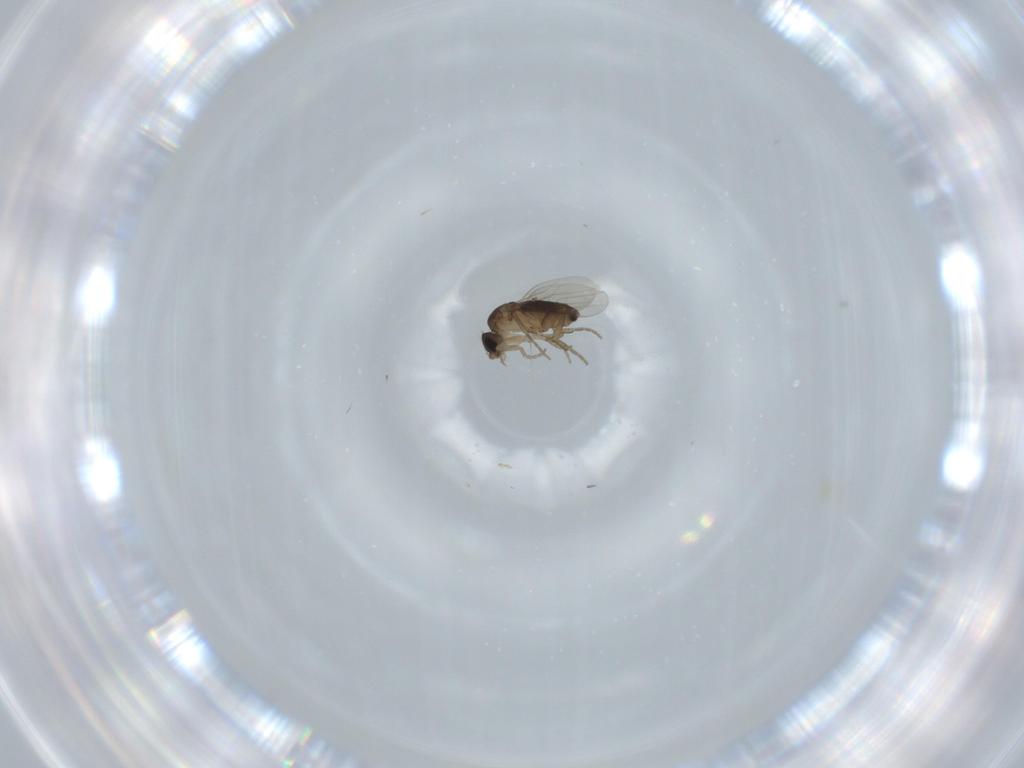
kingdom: Animalia
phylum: Arthropoda
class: Insecta
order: Diptera
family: Phoridae
